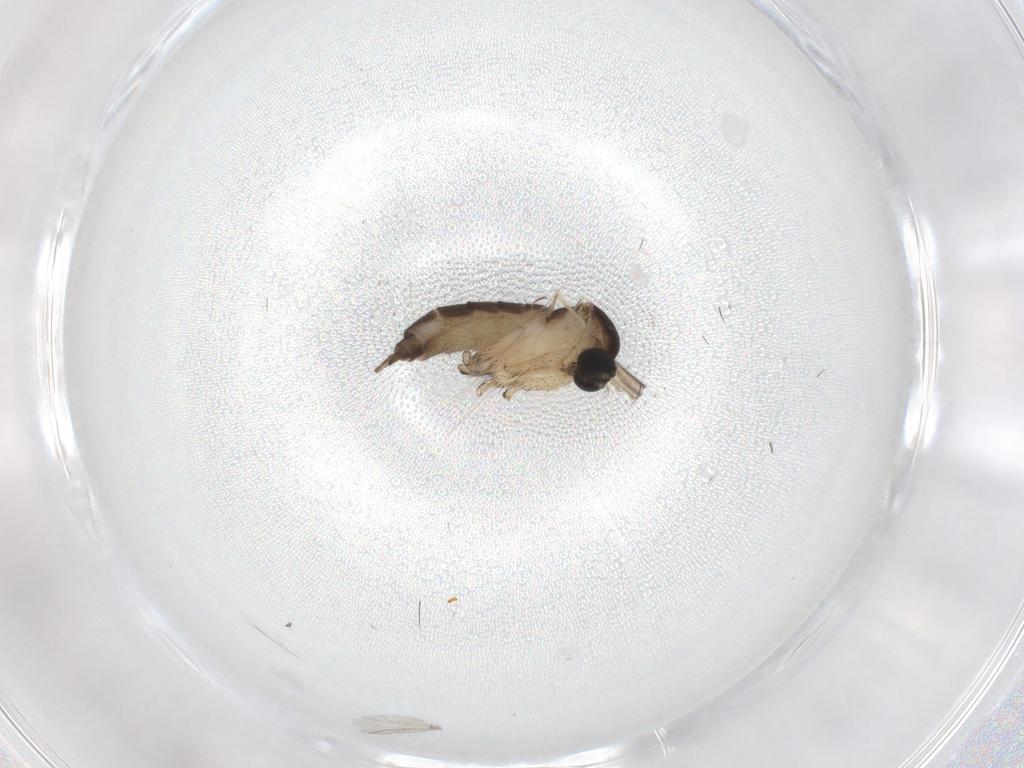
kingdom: Animalia
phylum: Arthropoda
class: Insecta
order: Diptera
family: Sciaridae
